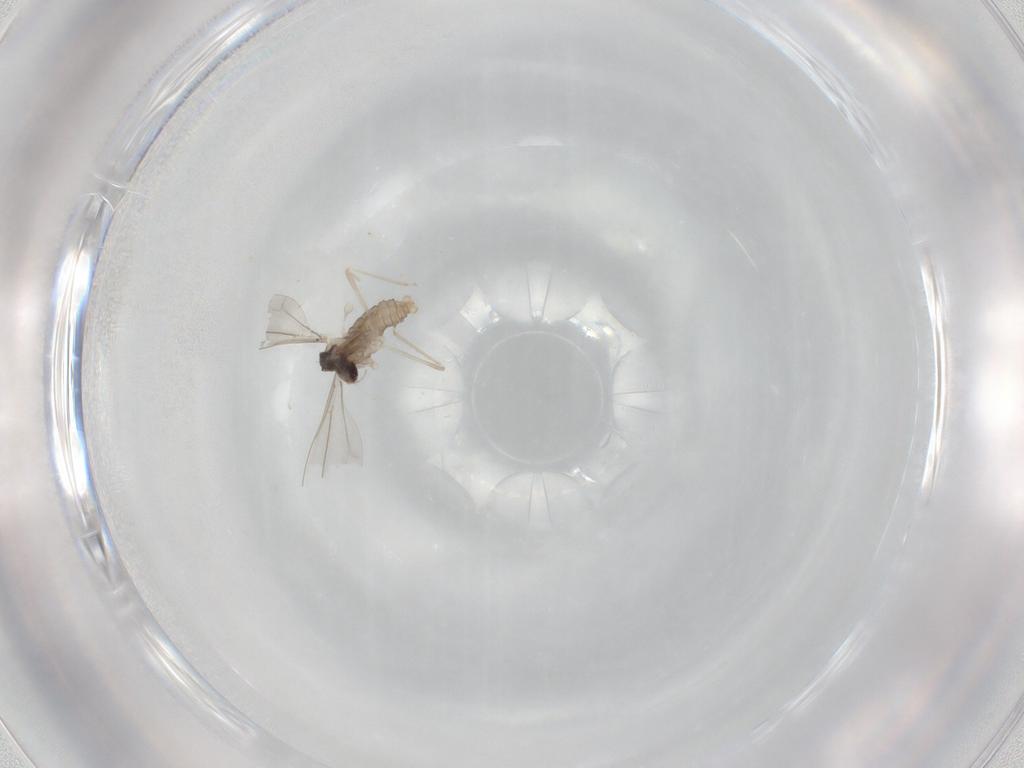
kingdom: Animalia
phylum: Arthropoda
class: Insecta
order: Diptera
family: Cecidomyiidae
